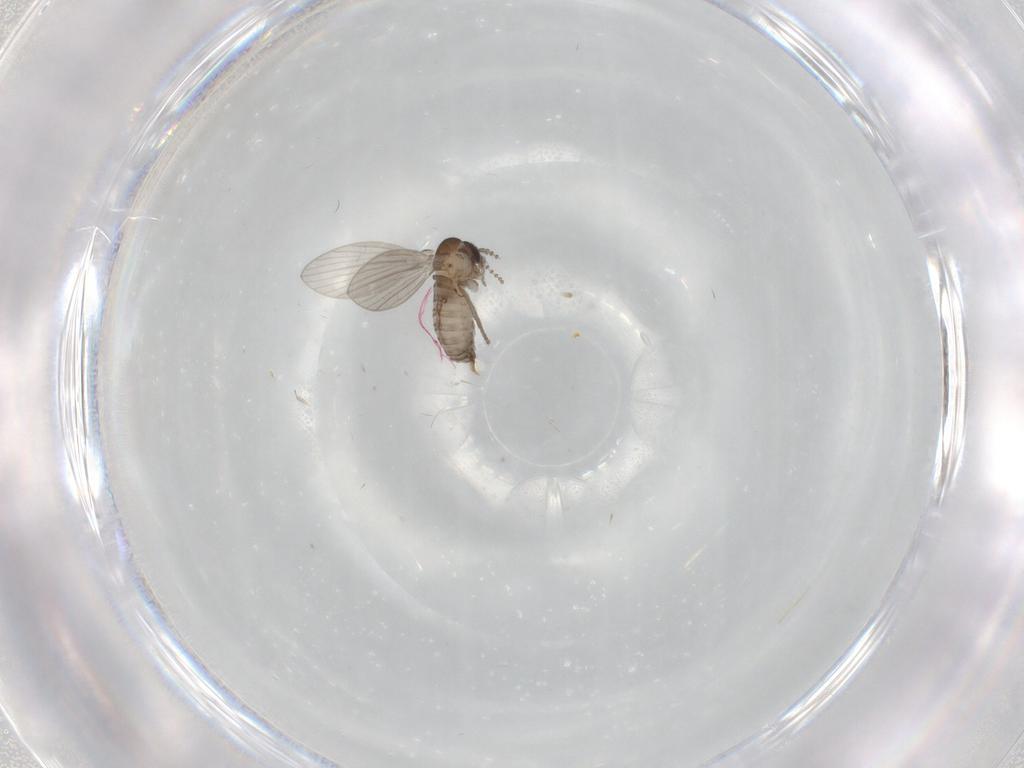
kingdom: Animalia
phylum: Arthropoda
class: Insecta
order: Diptera
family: Psychodidae
